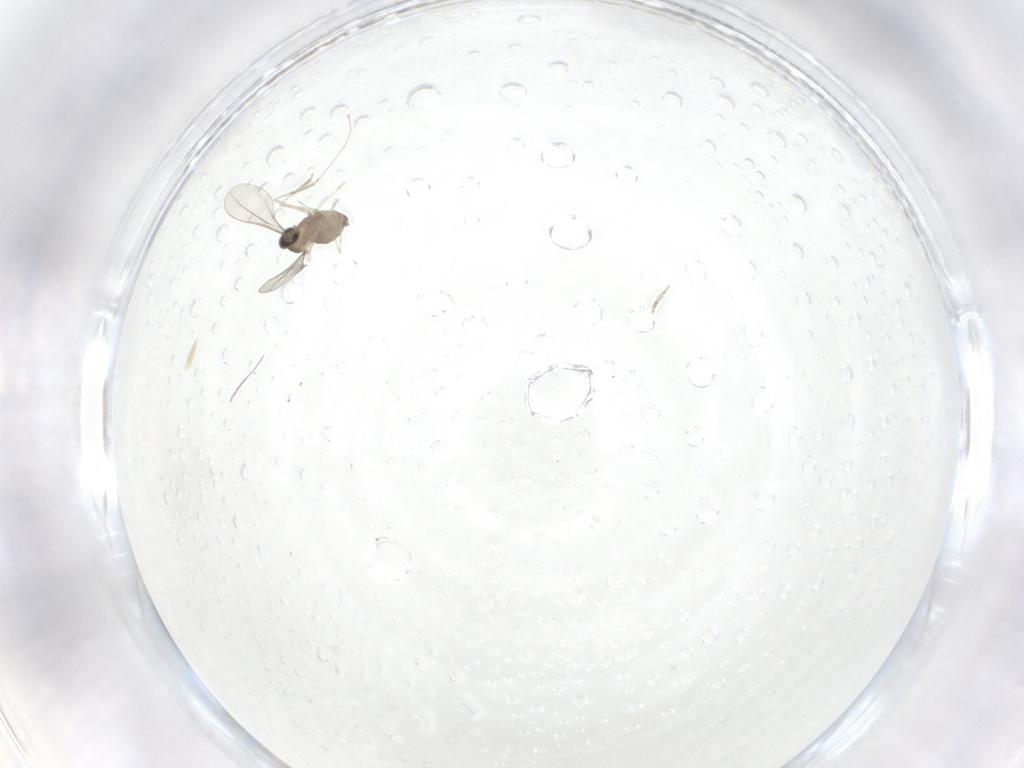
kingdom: Animalia
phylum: Arthropoda
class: Insecta
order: Diptera
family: Cecidomyiidae
